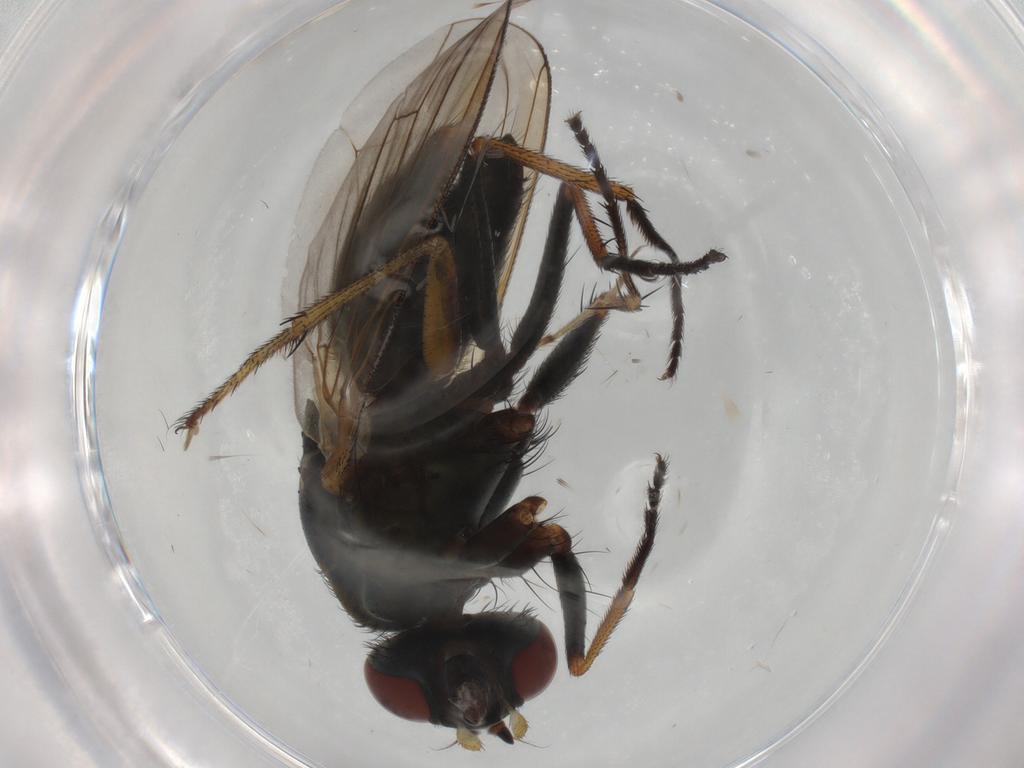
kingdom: Animalia
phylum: Arthropoda
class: Insecta
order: Diptera
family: Muscidae
